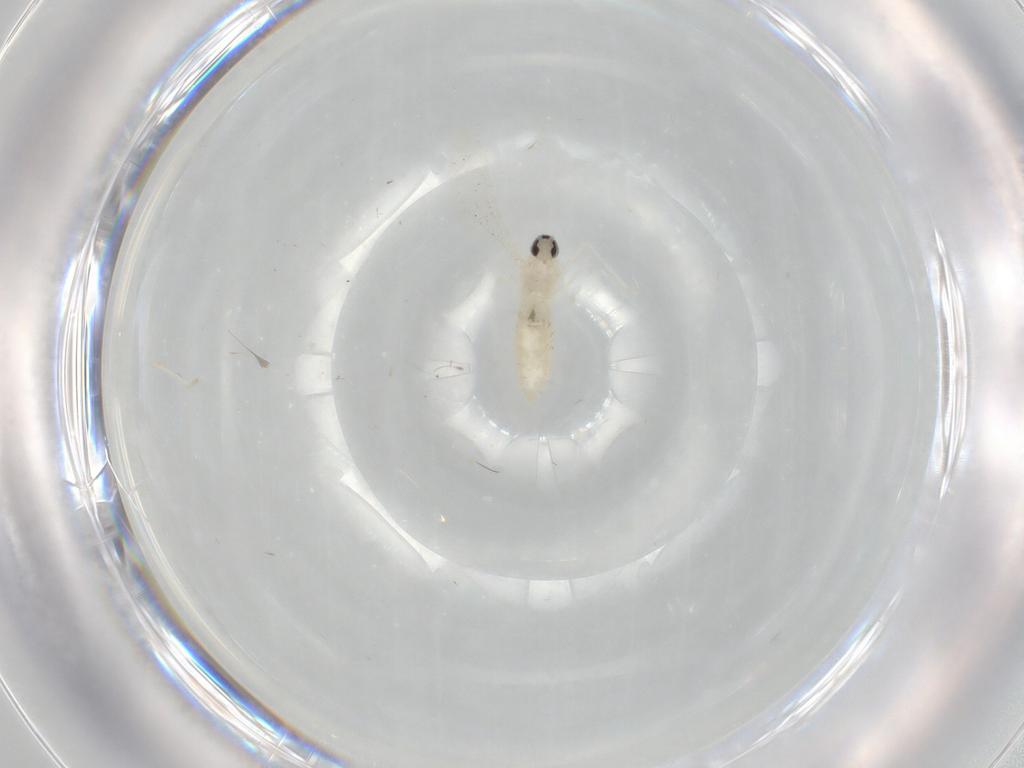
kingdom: Animalia
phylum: Arthropoda
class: Insecta
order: Diptera
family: Cecidomyiidae
